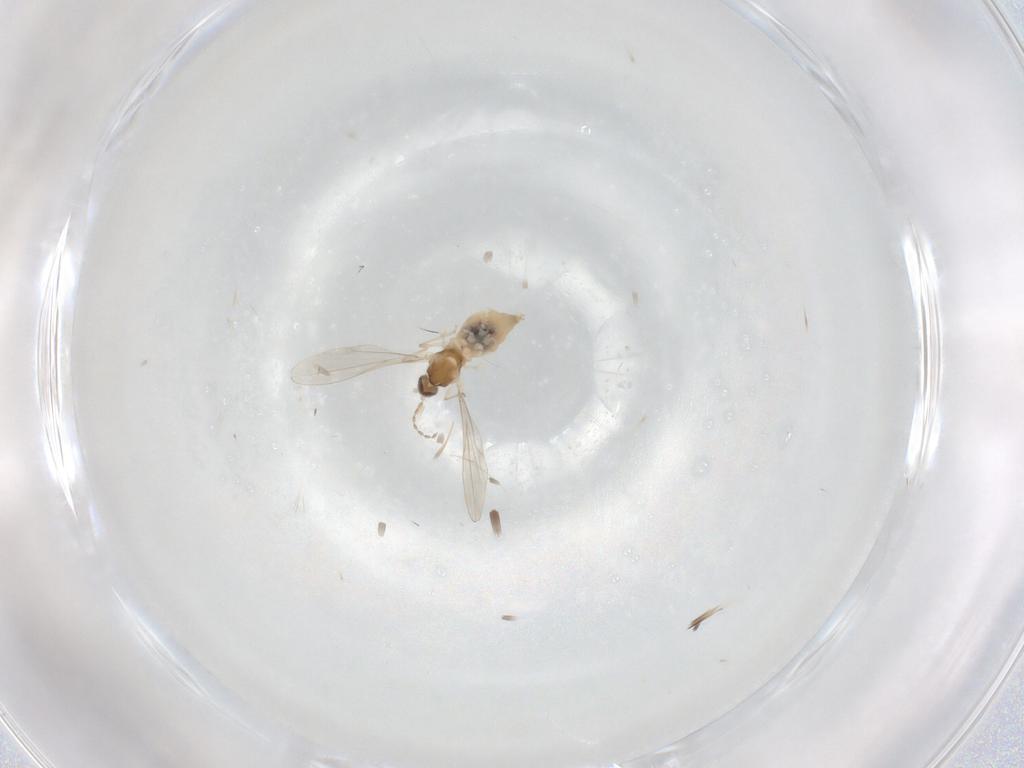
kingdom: Animalia
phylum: Arthropoda
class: Insecta
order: Diptera
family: Cecidomyiidae
